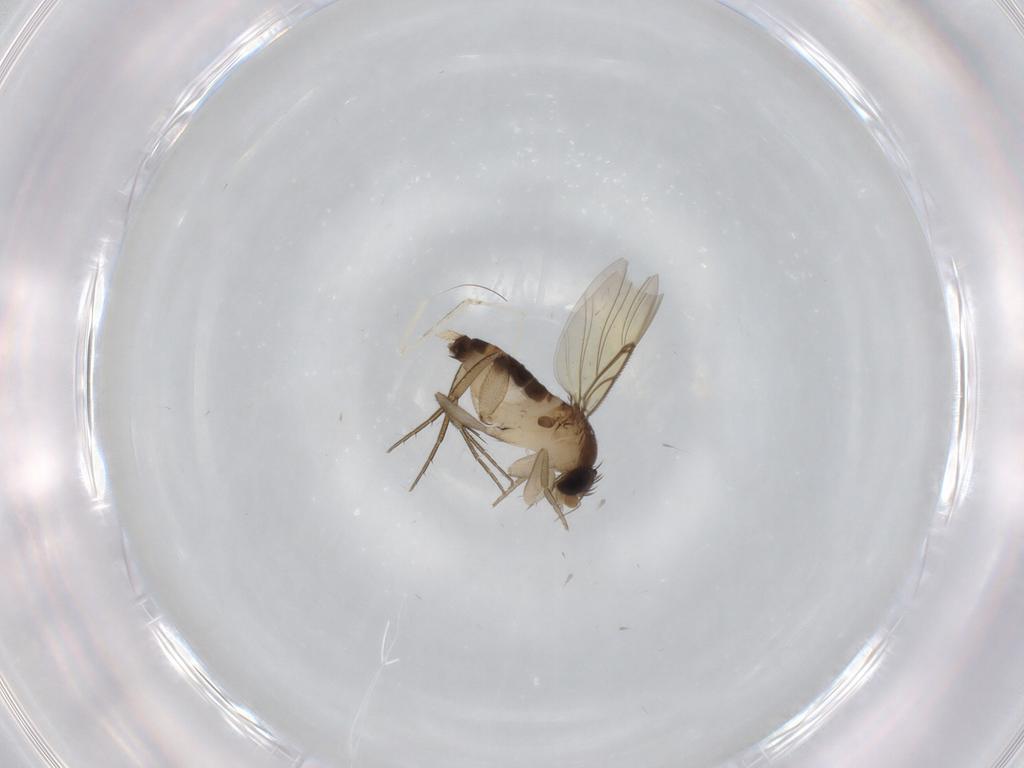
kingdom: Animalia
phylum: Arthropoda
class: Insecta
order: Diptera
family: Phoridae
